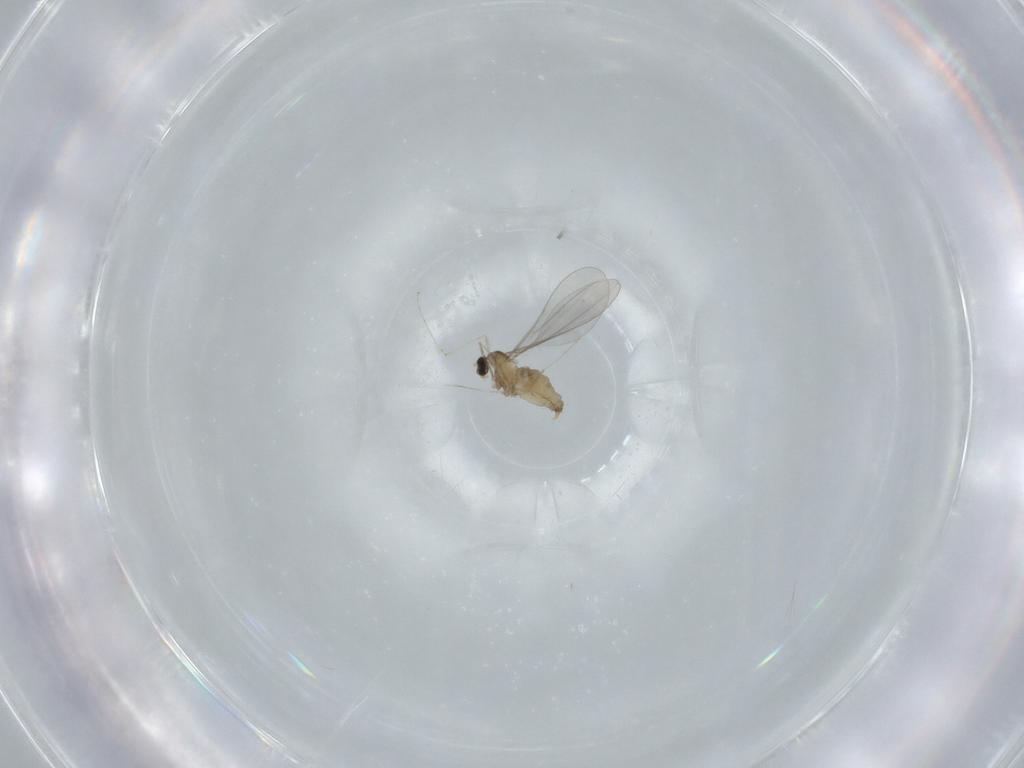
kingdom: Animalia
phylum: Arthropoda
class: Insecta
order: Diptera
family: Cecidomyiidae
